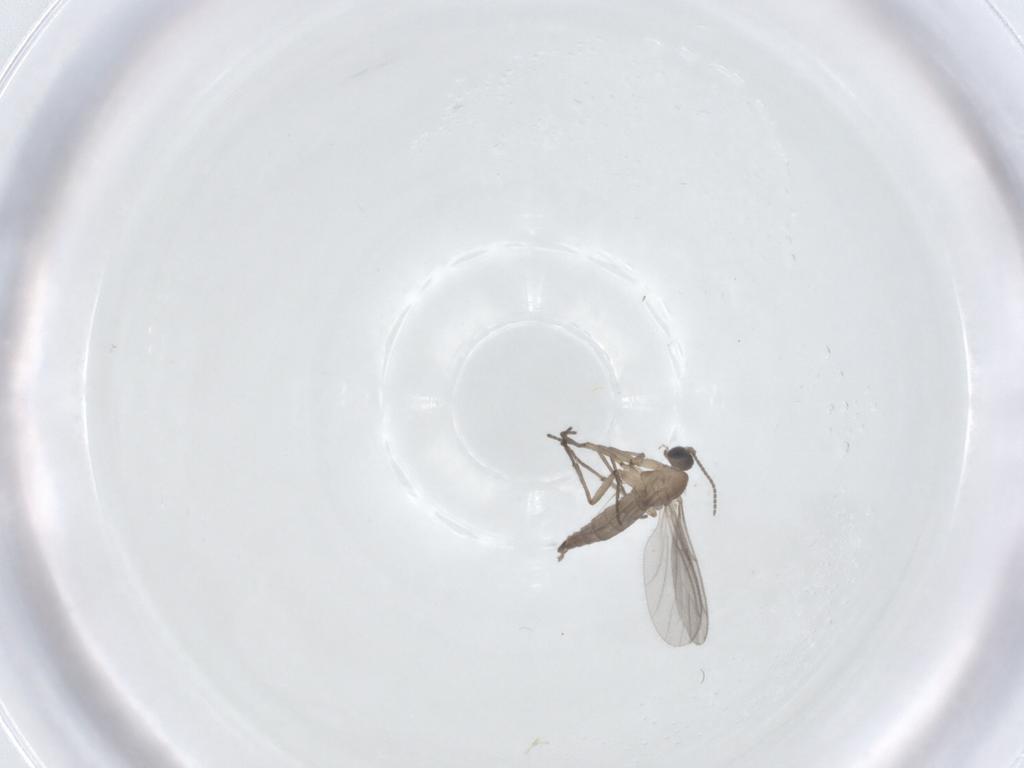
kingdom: Animalia
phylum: Arthropoda
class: Insecta
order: Diptera
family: Sciaridae
